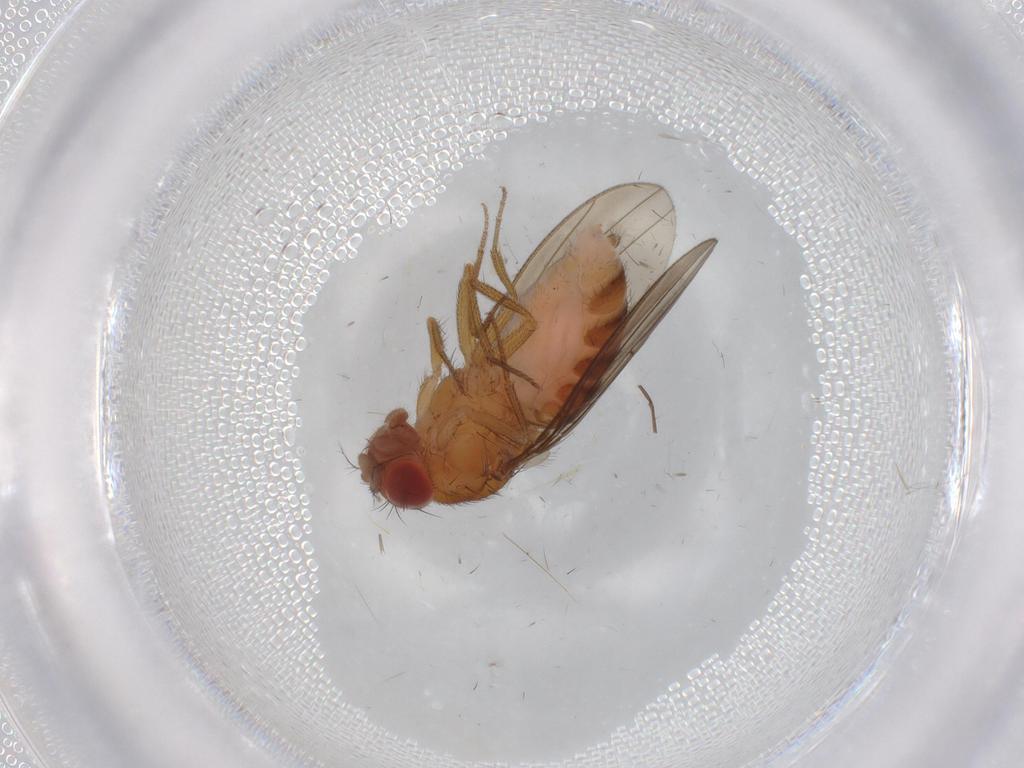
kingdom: Animalia
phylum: Arthropoda
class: Insecta
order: Diptera
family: Drosophilidae
